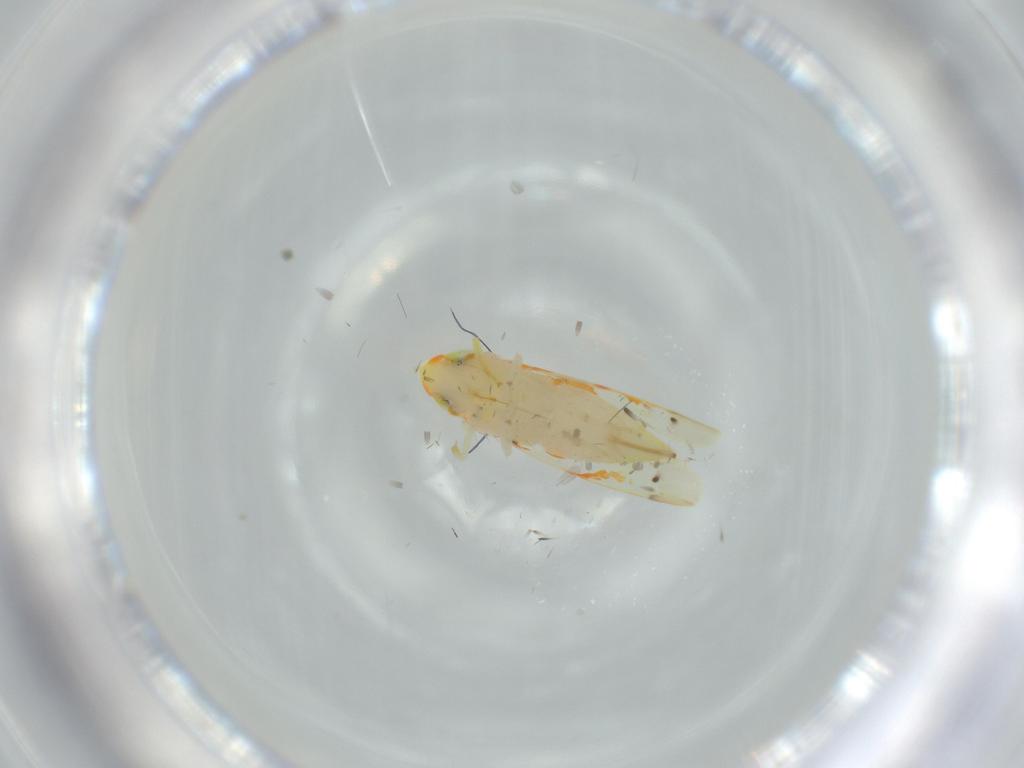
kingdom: Animalia
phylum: Arthropoda
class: Insecta
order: Hemiptera
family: Cicadellidae
